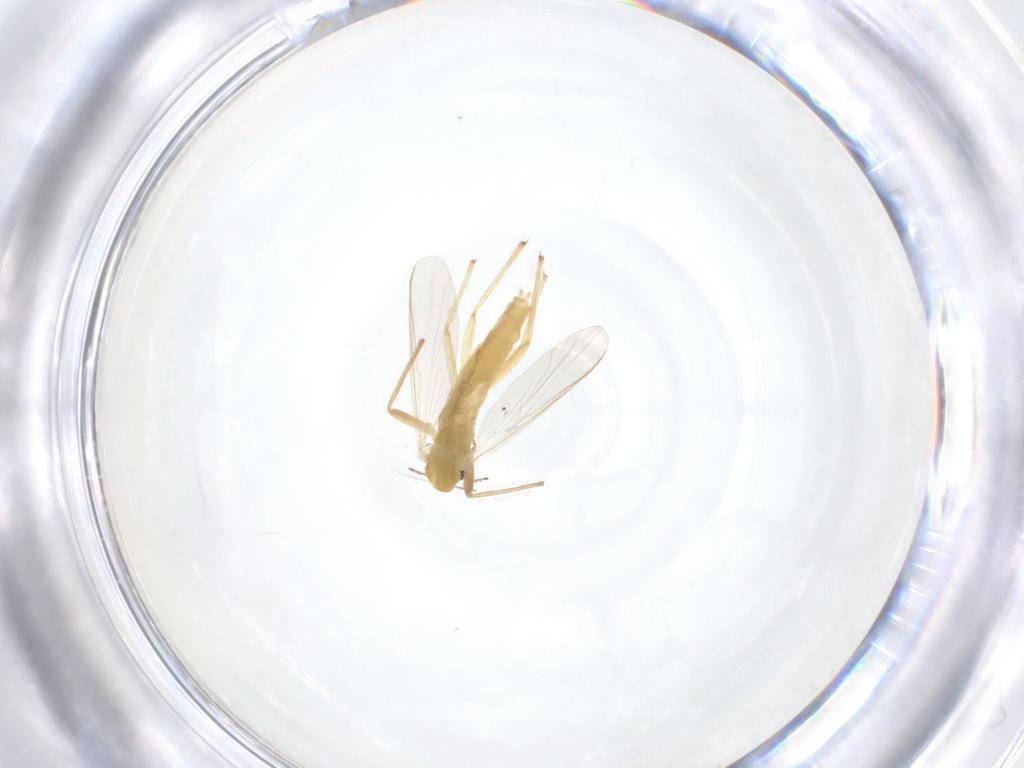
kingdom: Animalia
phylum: Arthropoda
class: Insecta
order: Diptera
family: Chironomidae
